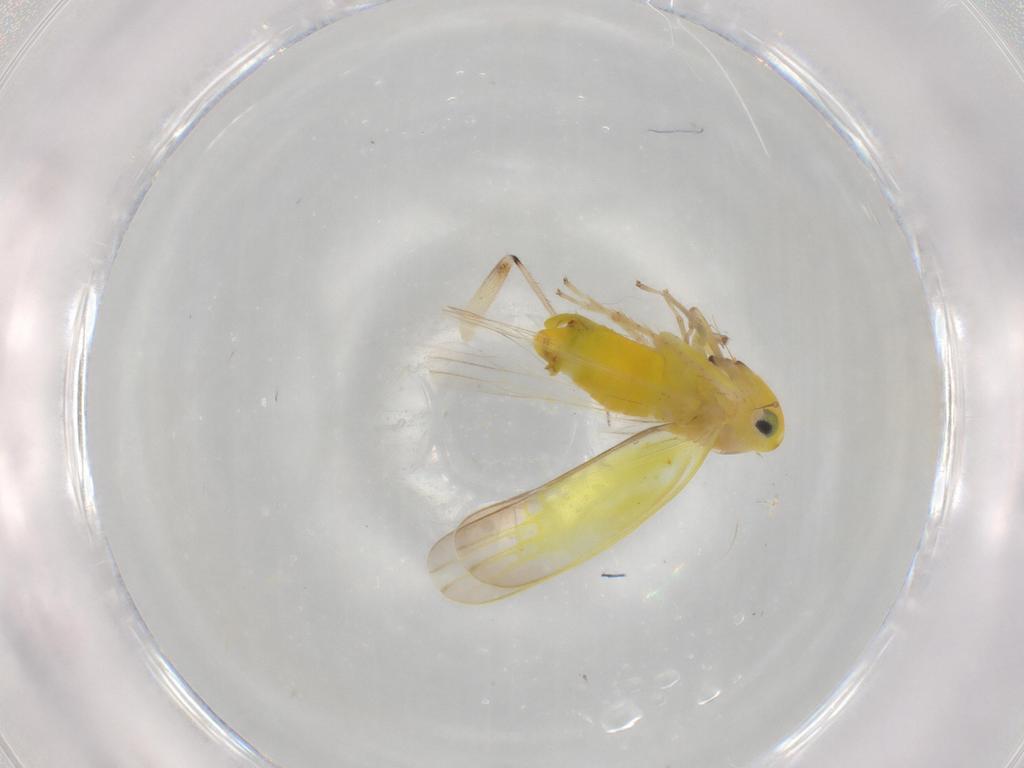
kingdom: Animalia
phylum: Arthropoda
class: Insecta
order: Hemiptera
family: Cicadellidae
